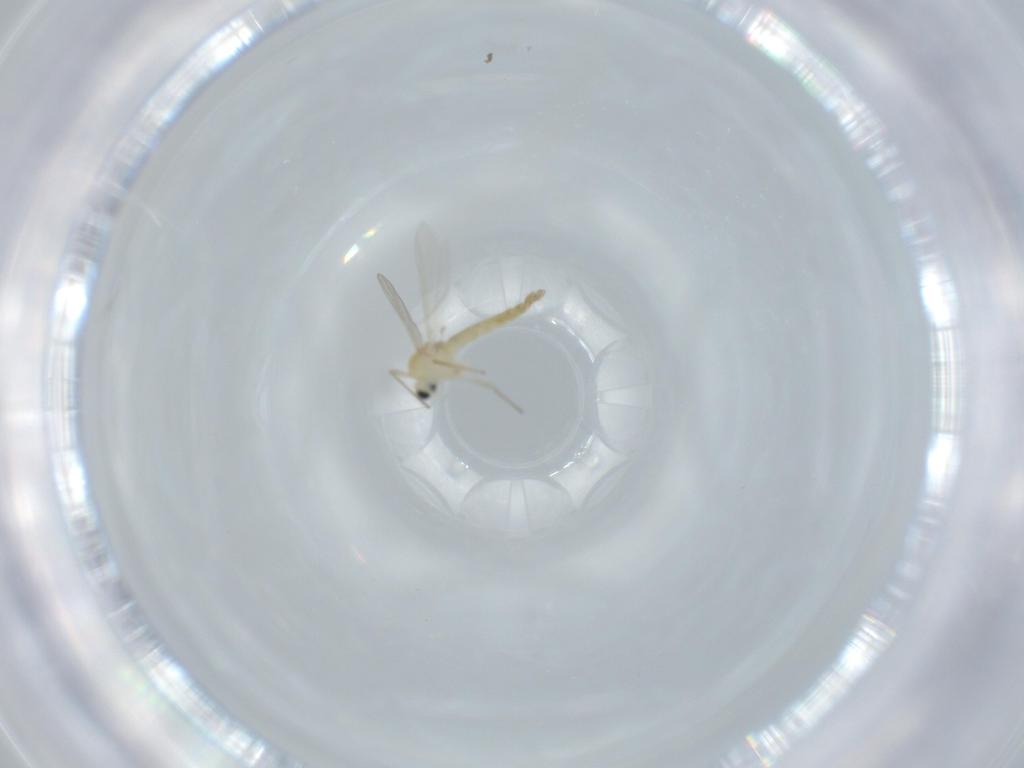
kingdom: Animalia
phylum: Arthropoda
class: Insecta
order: Diptera
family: Chironomidae
